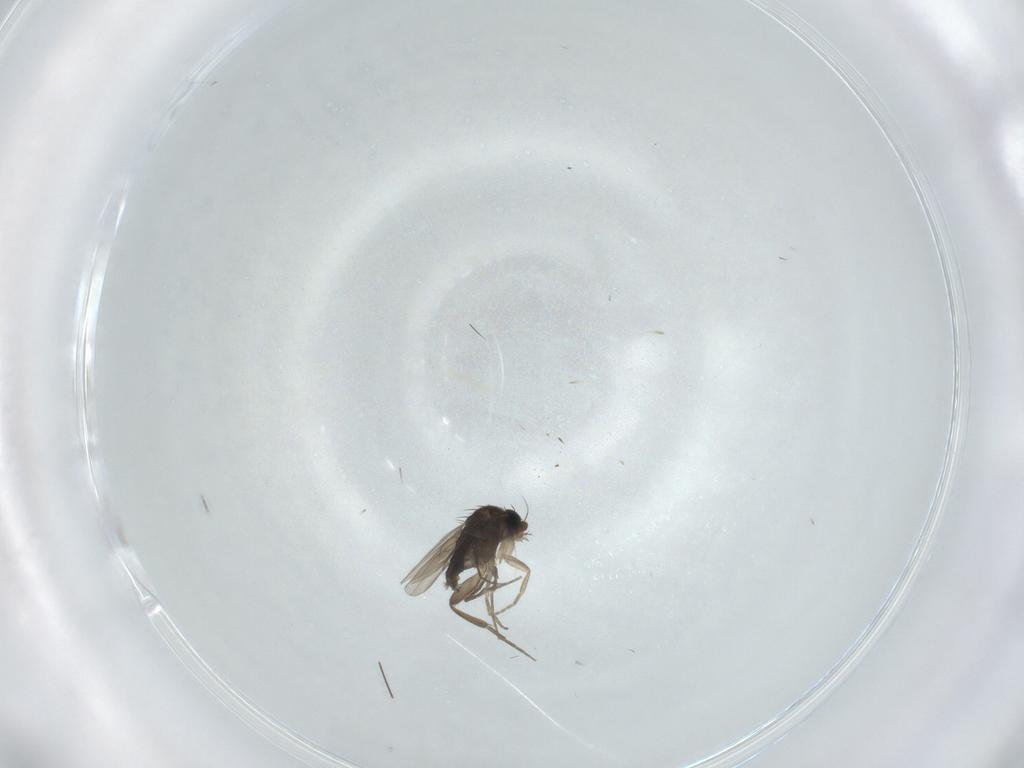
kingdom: Animalia
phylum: Arthropoda
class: Insecta
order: Diptera
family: Phoridae
